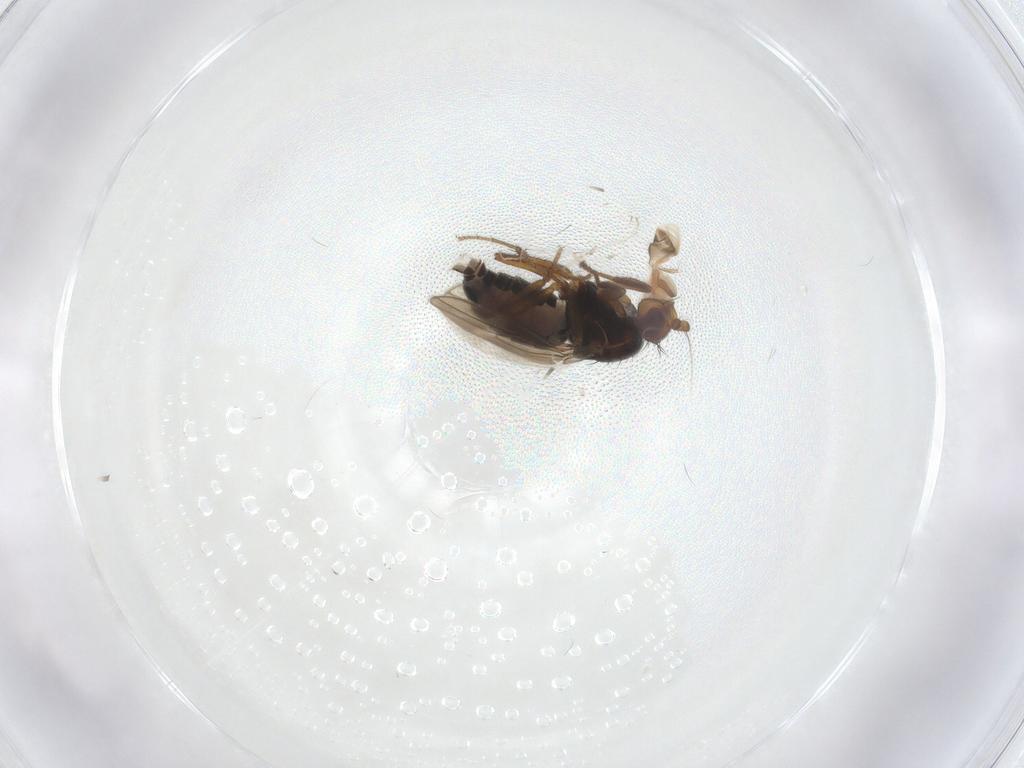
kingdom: Animalia
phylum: Arthropoda
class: Insecta
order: Diptera
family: Sphaeroceridae
